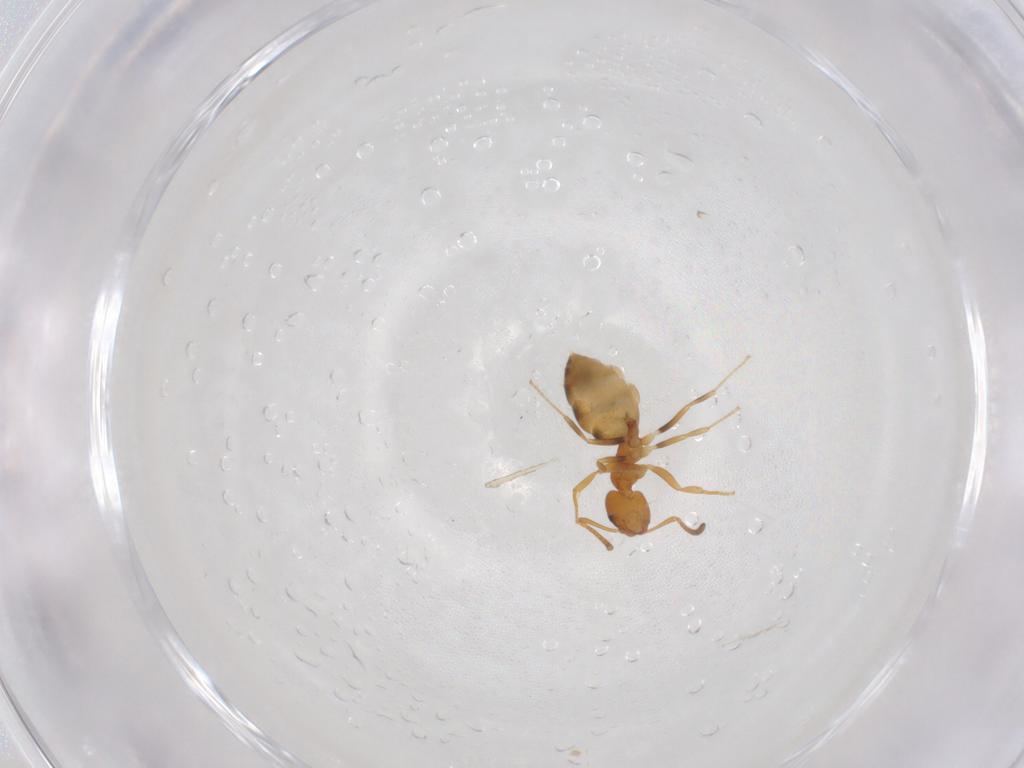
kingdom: Animalia
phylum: Arthropoda
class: Insecta
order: Hymenoptera
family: Formicidae
